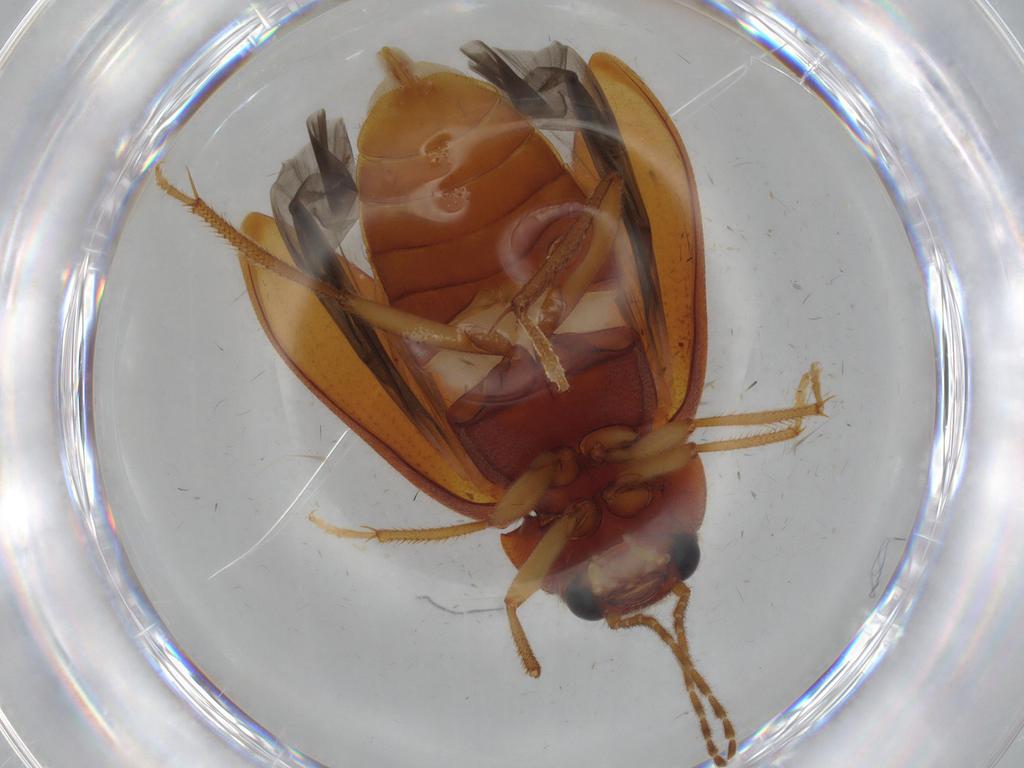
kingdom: Animalia
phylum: Arthropoda
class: Insecta
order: Coleoptera
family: Ptilodactylidae
